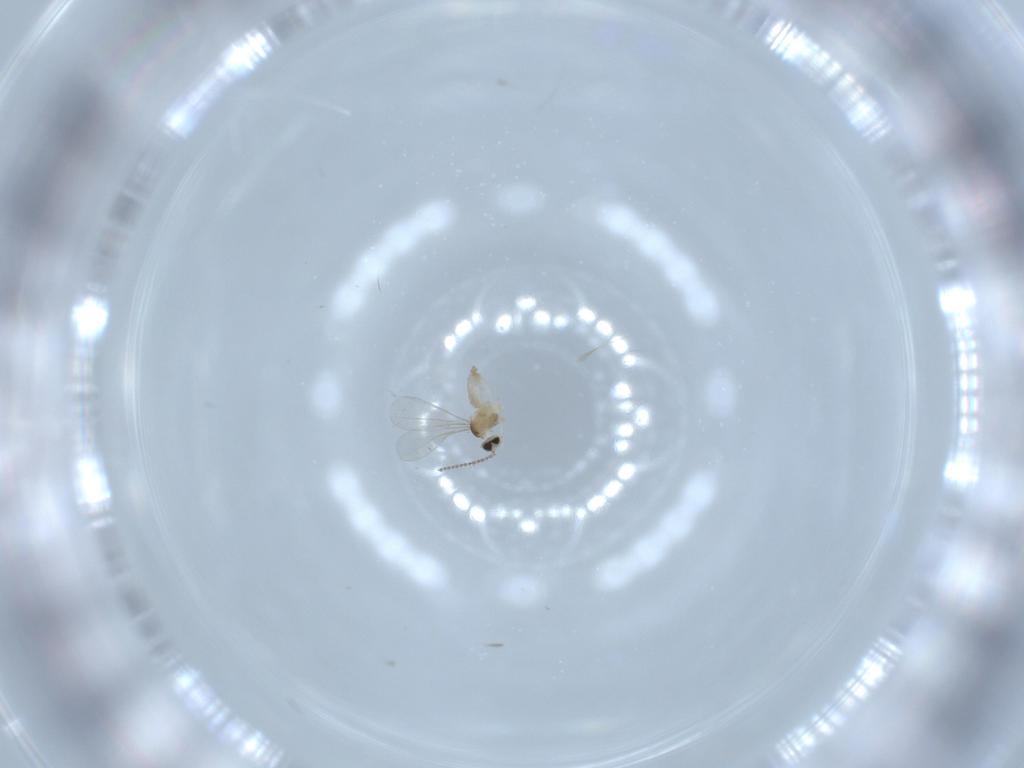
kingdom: Animalia
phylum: Arthropoda
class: Insecta
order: Diptera
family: Cecidomyiidae
